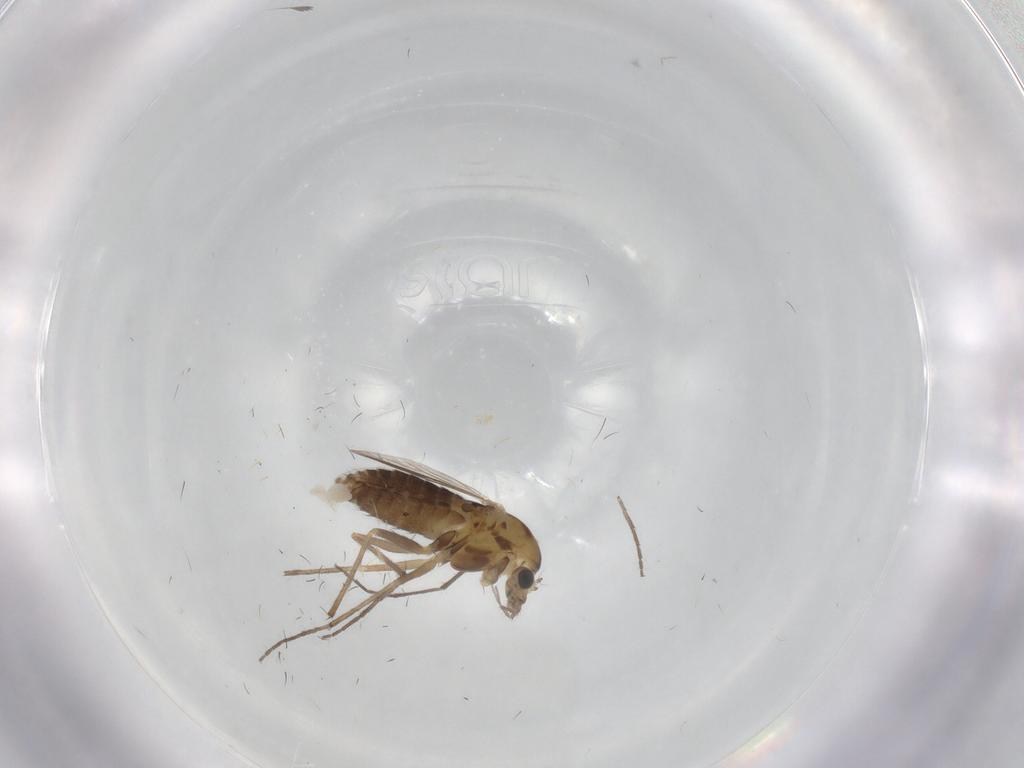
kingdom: Animalia
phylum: Arthropoda
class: Insecta
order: Diptera
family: Chironomidae
